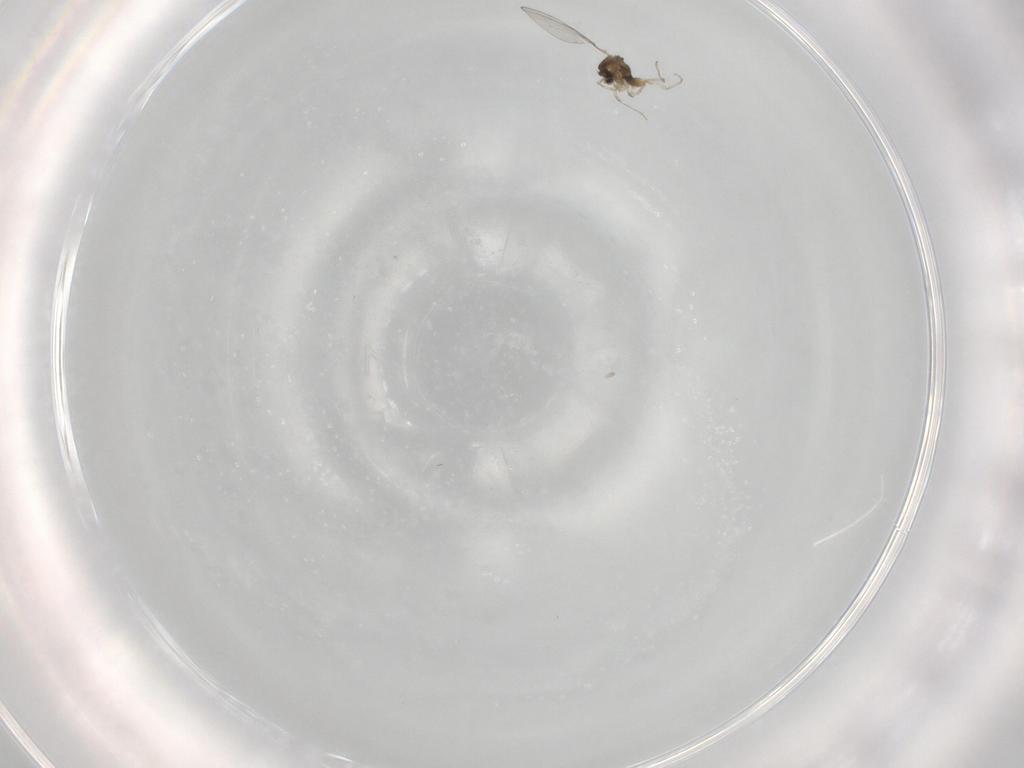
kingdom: Animalia
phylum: Arthropoda
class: Insecta
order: Diptera
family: Cecidomyiidae
